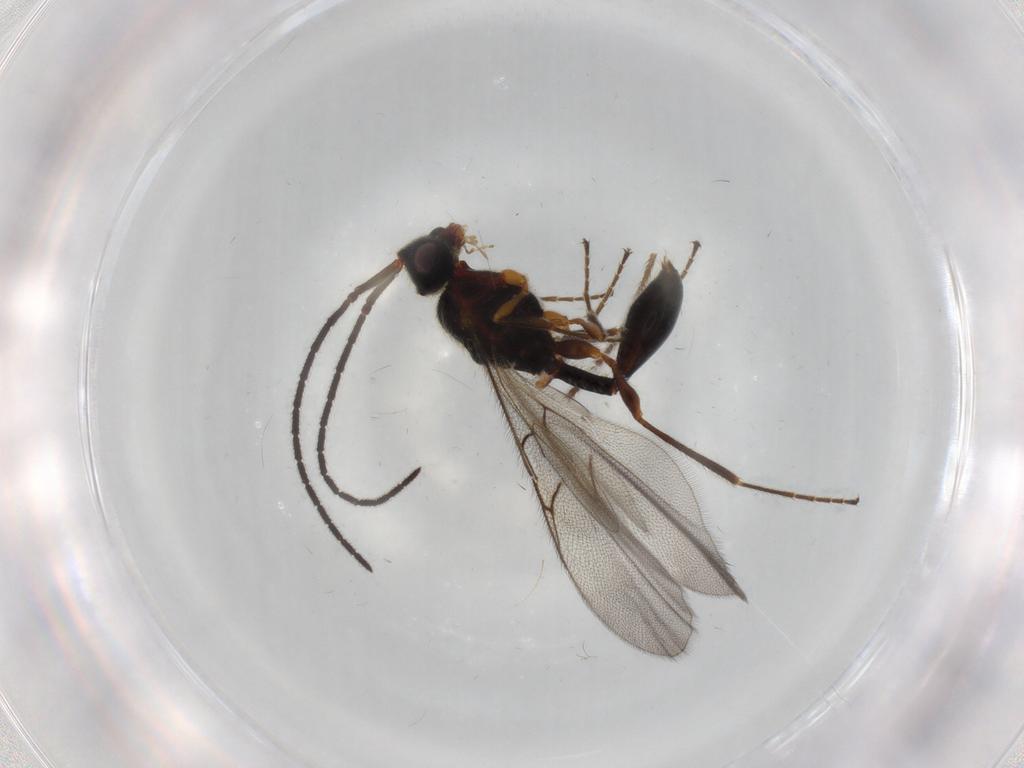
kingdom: Animalia
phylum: Arthropoda
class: Insecta
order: Hymenoptera
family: Diapriidae
